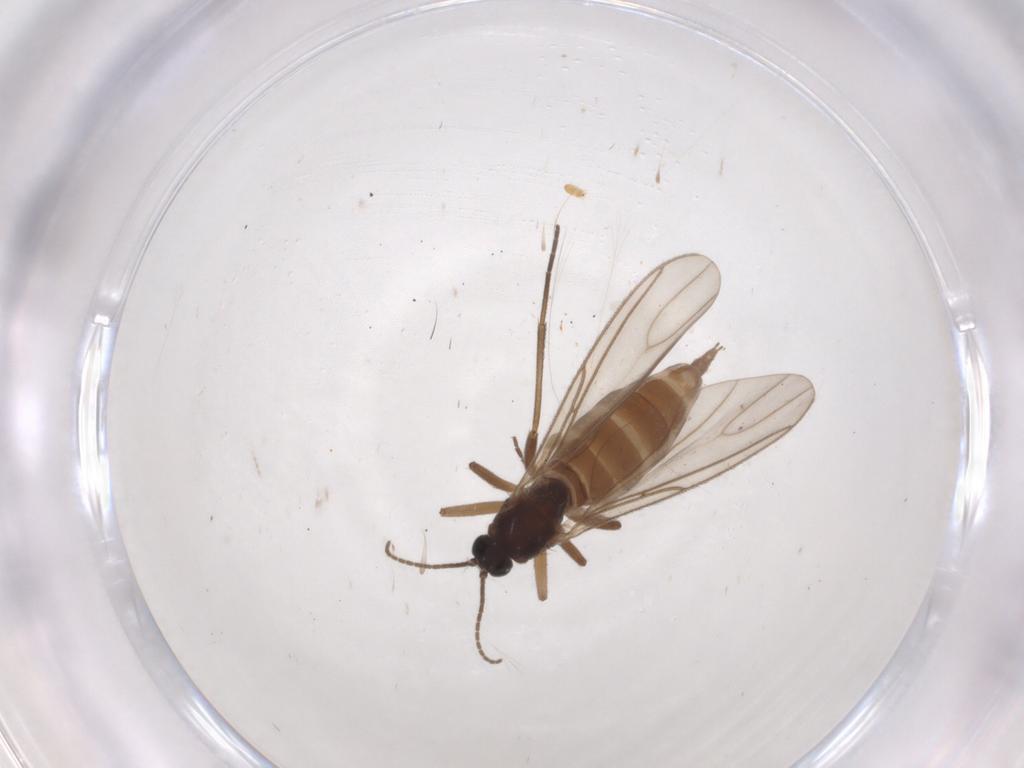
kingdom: Animalia
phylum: Arthropoda
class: Insecta
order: Diptera
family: Sciaridae
